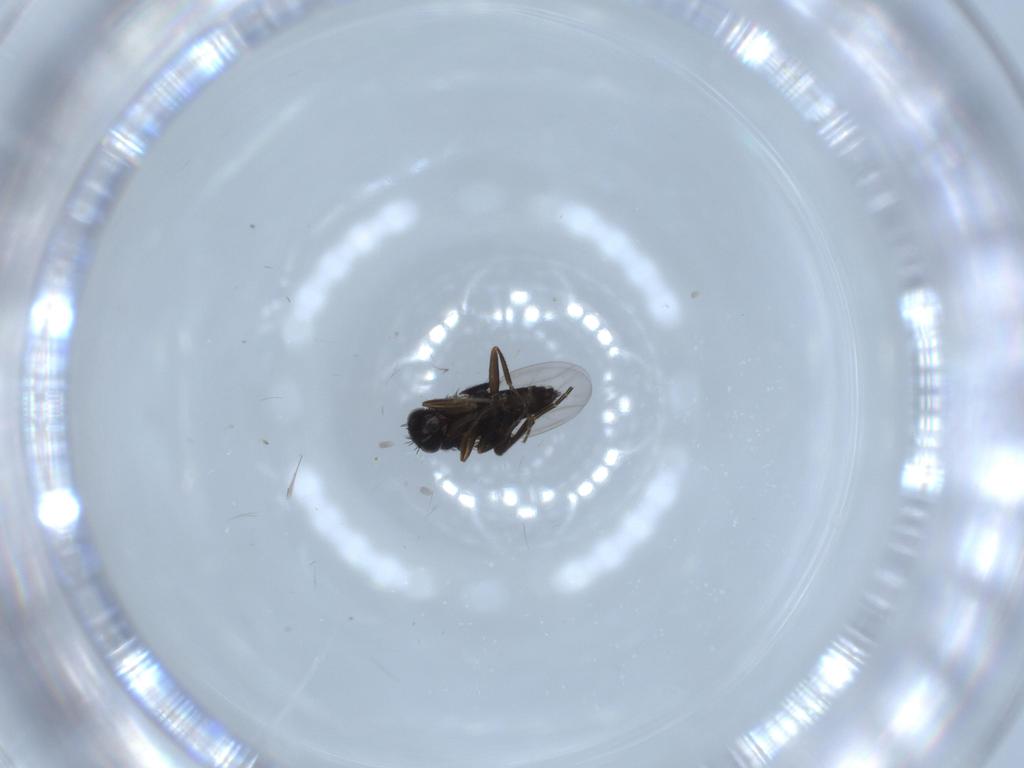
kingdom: Animalia
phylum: Arthropoda
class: Insecta
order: Diptera
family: Phoridae
